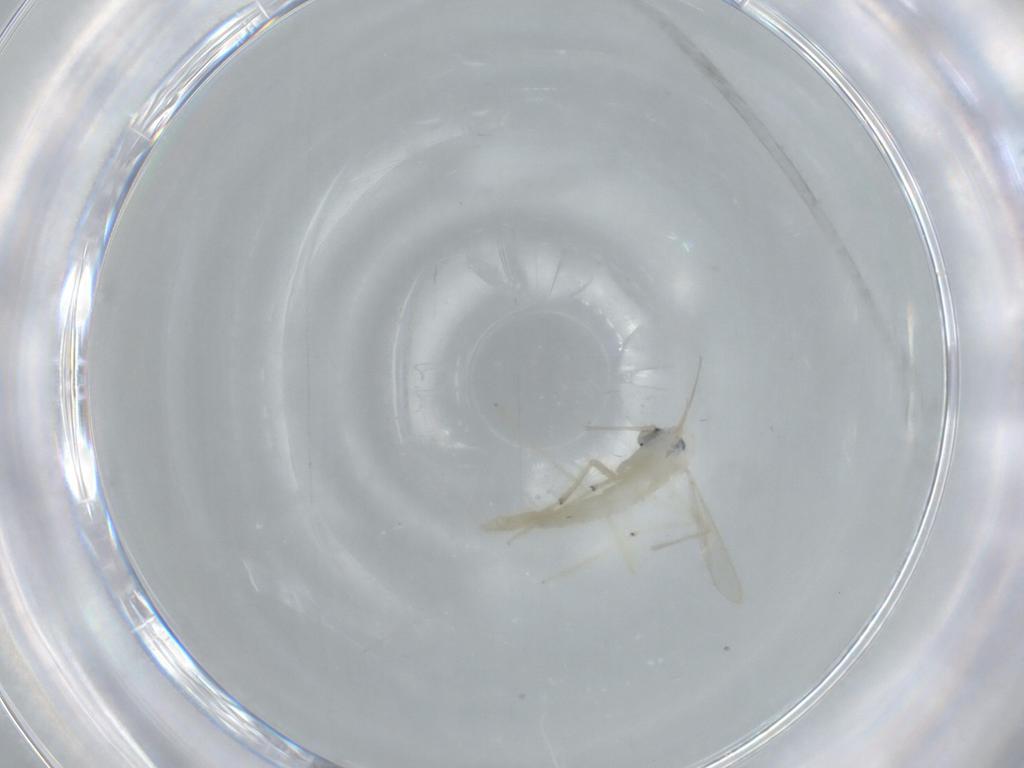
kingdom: Animalia
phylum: Arthropoda
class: Insecta
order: Diptera
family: Chironomidae
